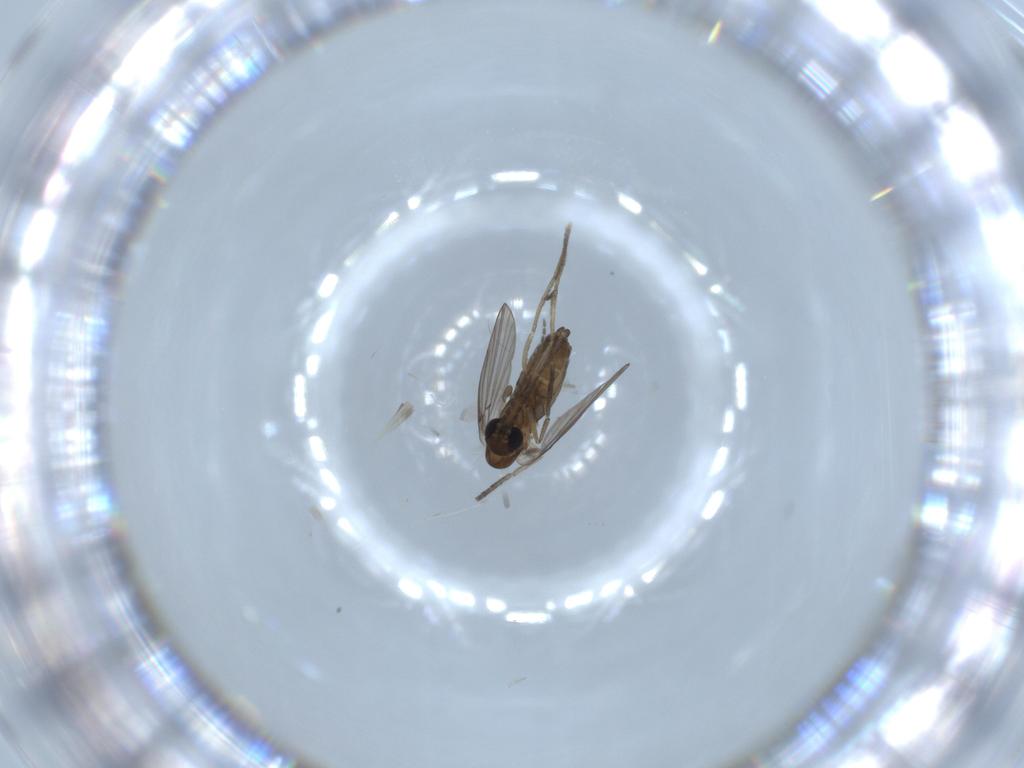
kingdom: Animalia
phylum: Arthropoda
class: Insecta
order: Diptera
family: Psychodidae
